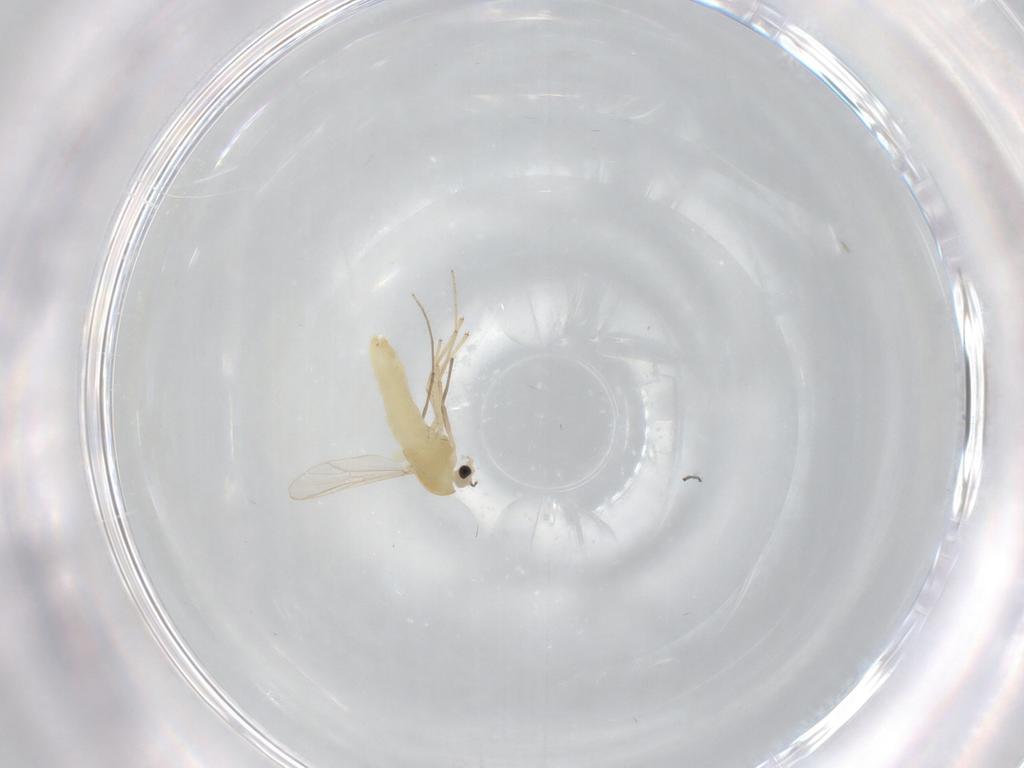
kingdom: Animalia
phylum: Arthropoda
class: Insecta
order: Diptera
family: Chironomidae
